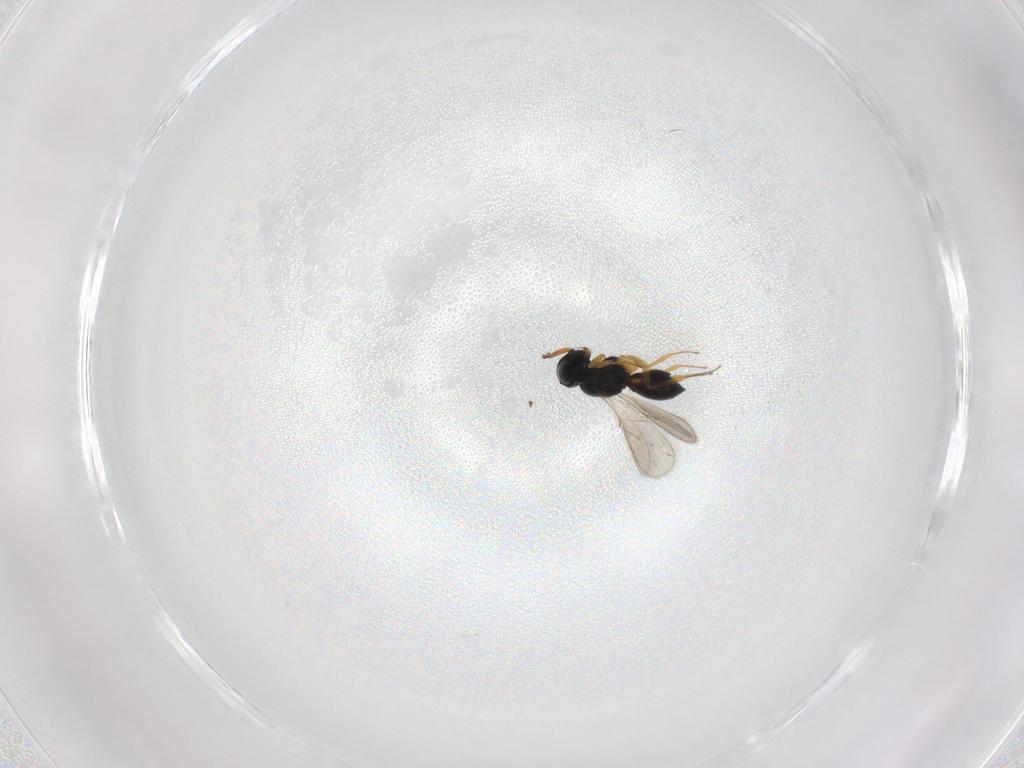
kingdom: Animalia
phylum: Arthropoda
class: Insecta
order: Hymenoptera
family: Scelionidae
